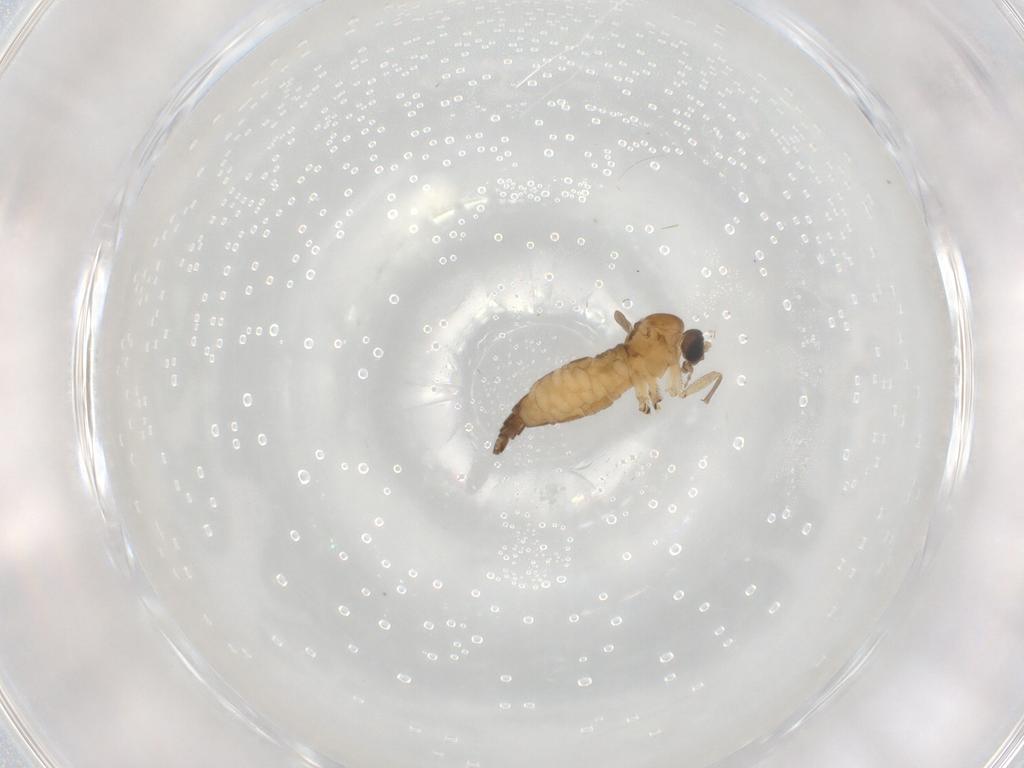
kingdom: Animalia
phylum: Arthropoda
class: Insecta
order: Diptera
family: Sciaridae
